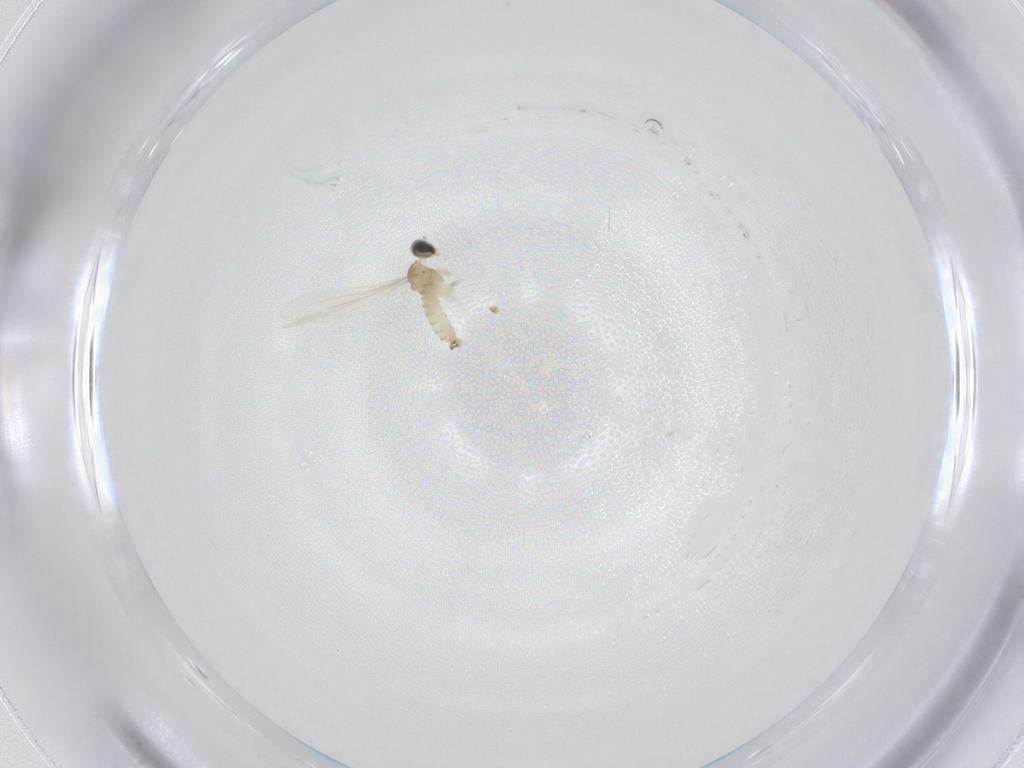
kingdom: Animalia
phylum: Arthropoda
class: Insecta
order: Diptera
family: Cecidomyiidae
